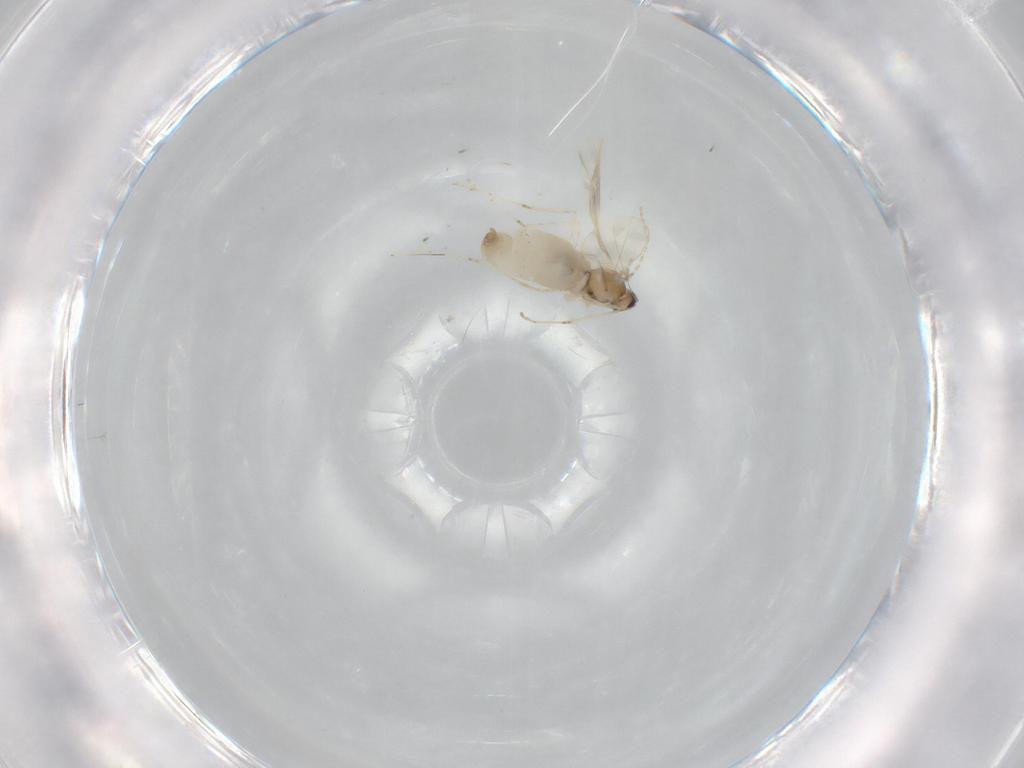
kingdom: Animalia
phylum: Arthropoda
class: Insecta
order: Diptera
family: Cecidomyiidae
